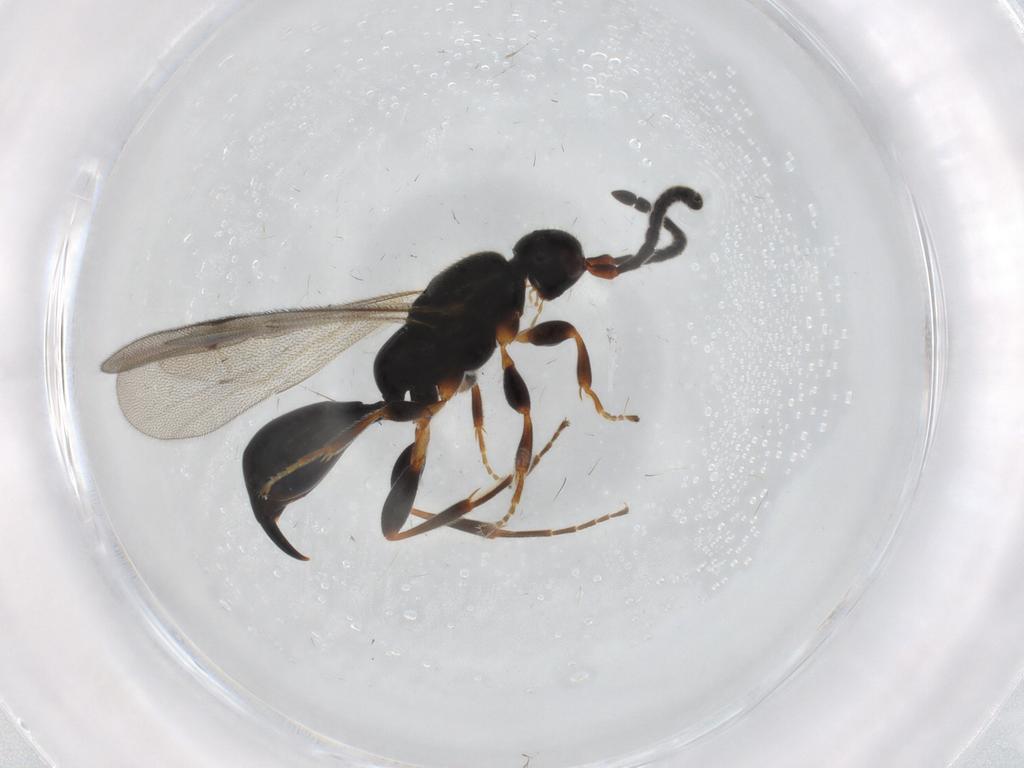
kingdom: Animalia
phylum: Arthropoda
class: Insecta
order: Hymenoptera
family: Proctotrupidae
